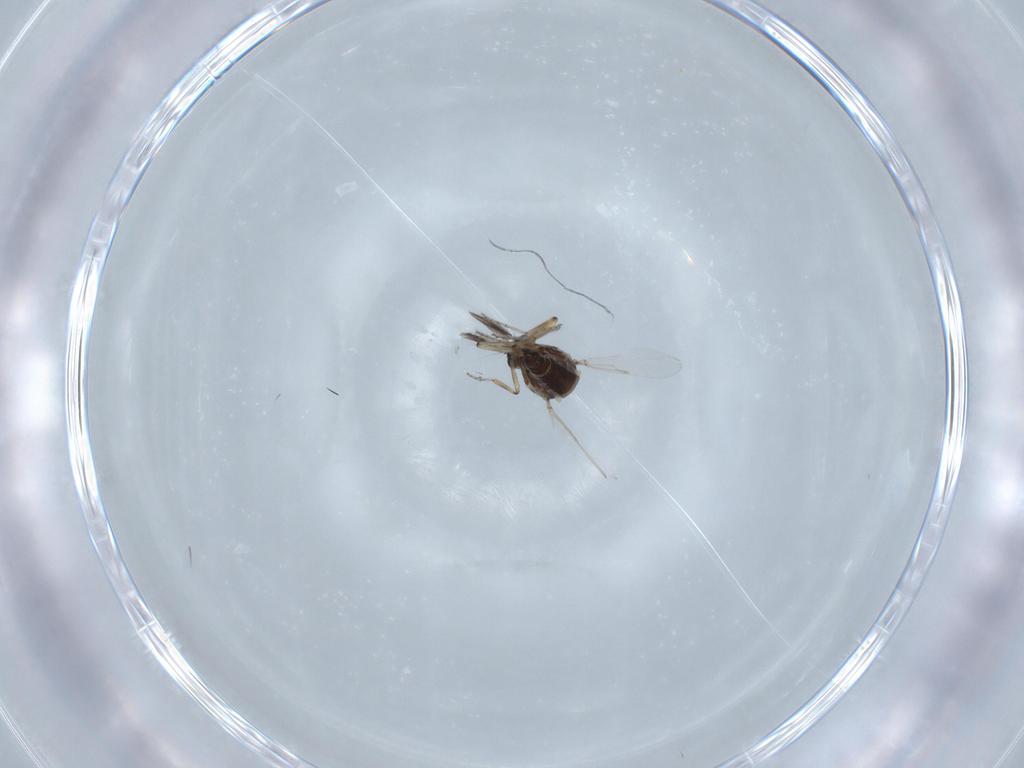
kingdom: Animalia
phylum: Arthropoda
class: Insecta
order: Diptera
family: Ceratopogonidae
